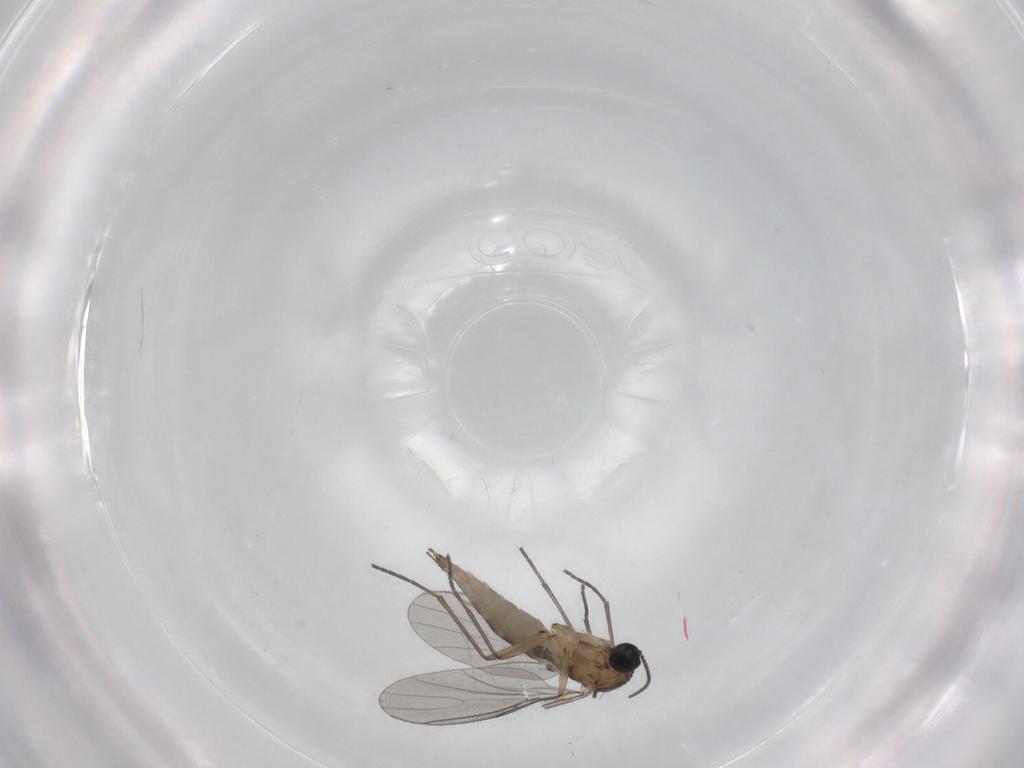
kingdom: Animalia
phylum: Arthropoda
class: Insecta
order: Diptera
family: Sciaridae
